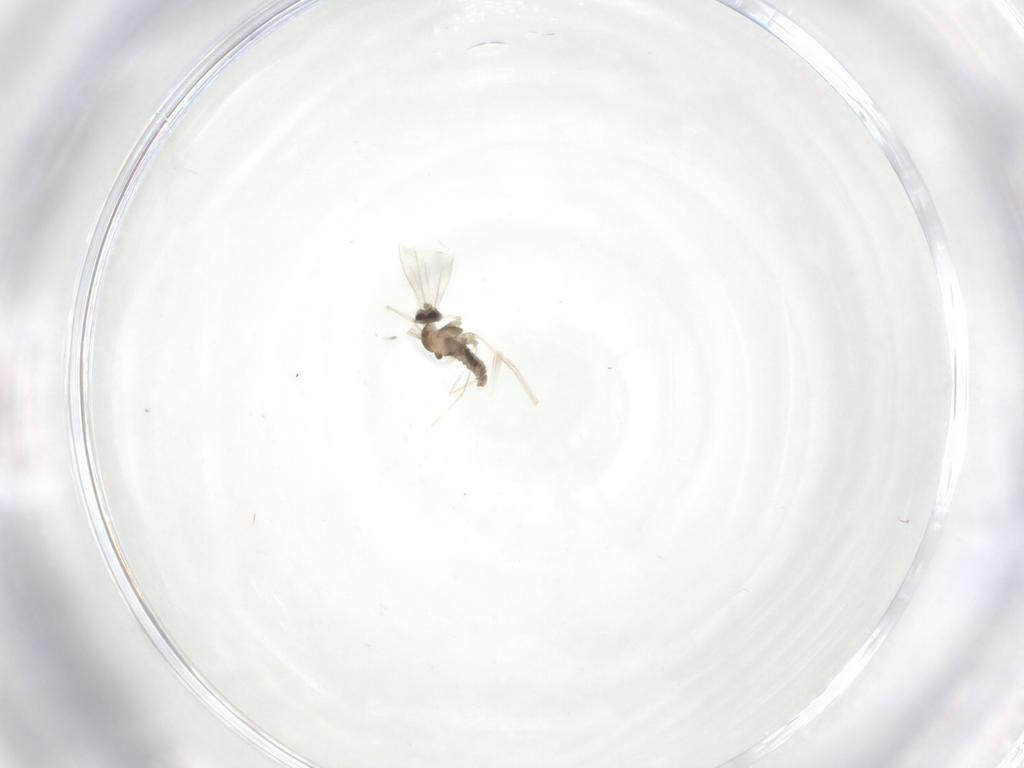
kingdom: Animalia
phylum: Arthropoda
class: Insecta
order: Diptera
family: Cecidomyiidae
